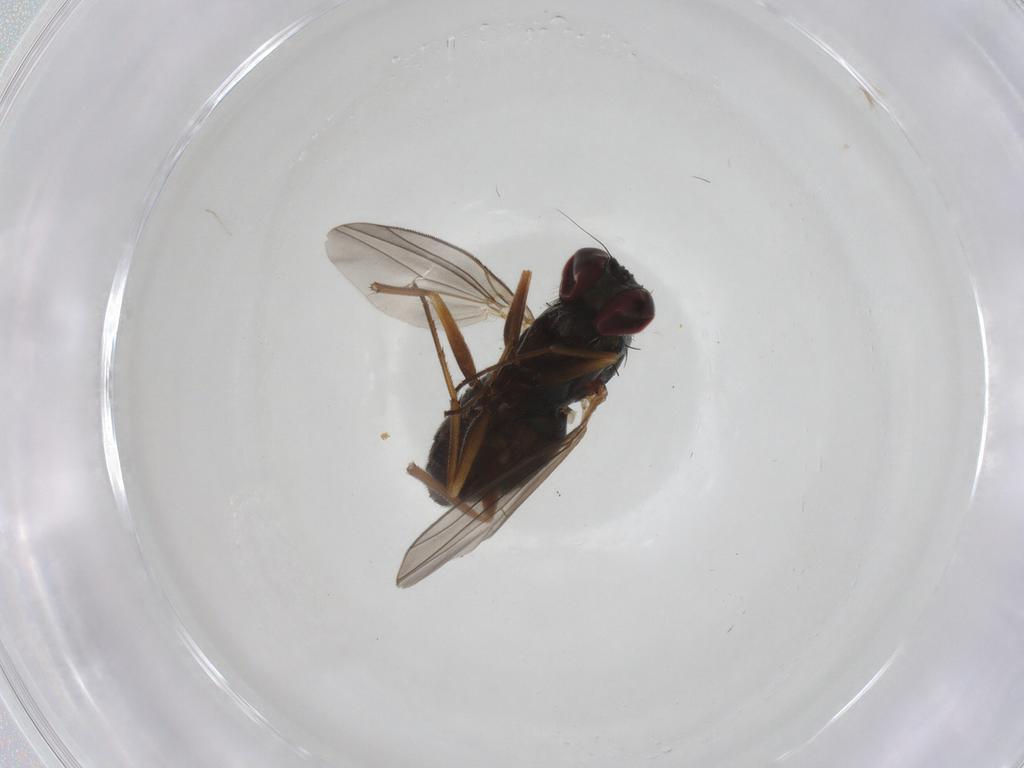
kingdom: Animalia
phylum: Arthropoda
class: Insecta
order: Diptera
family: Dolichopodidae
